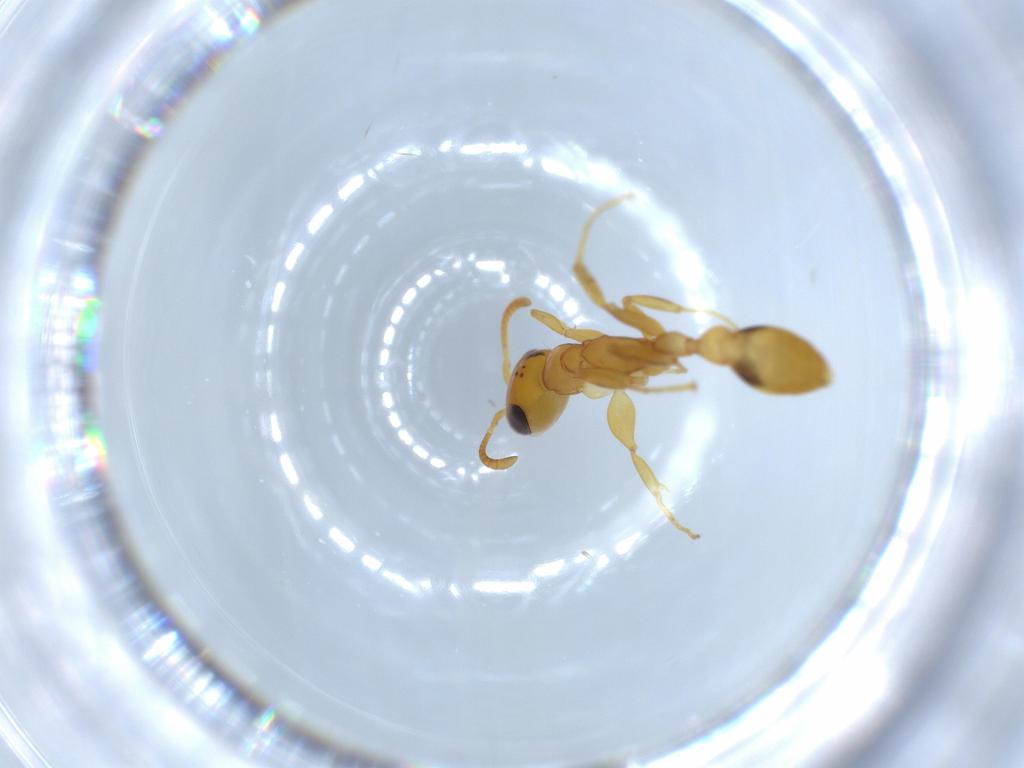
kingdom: Animalia
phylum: Arthropoda
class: Insecta
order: Hymenoptera
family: Formicidae
